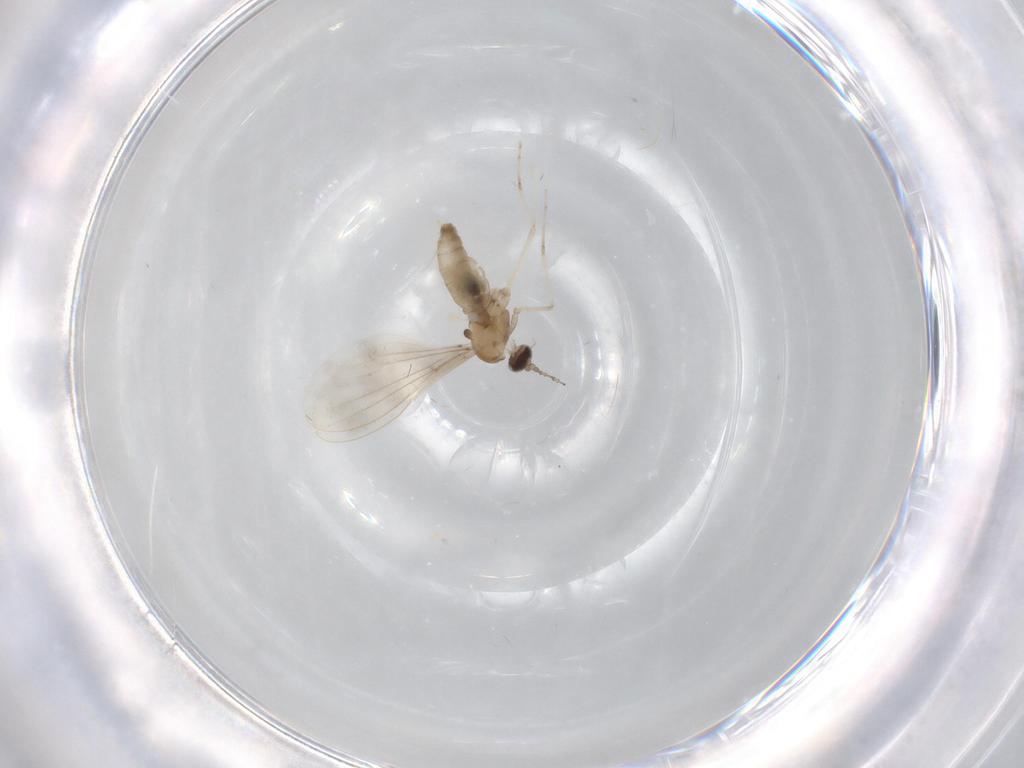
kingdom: Animalia
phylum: Arthropoda
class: Insecta
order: Diptera
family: Cecidomyiidae
